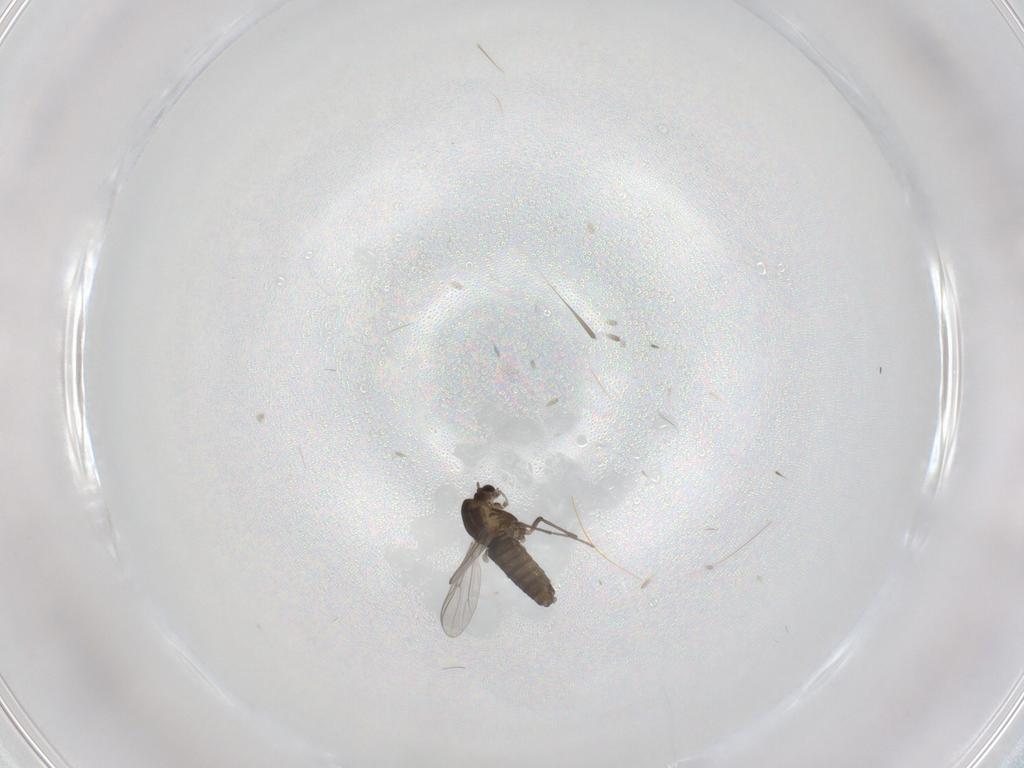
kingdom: Animalia
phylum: Arthropoda
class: Insecta
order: Diptera
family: Chironomidae
